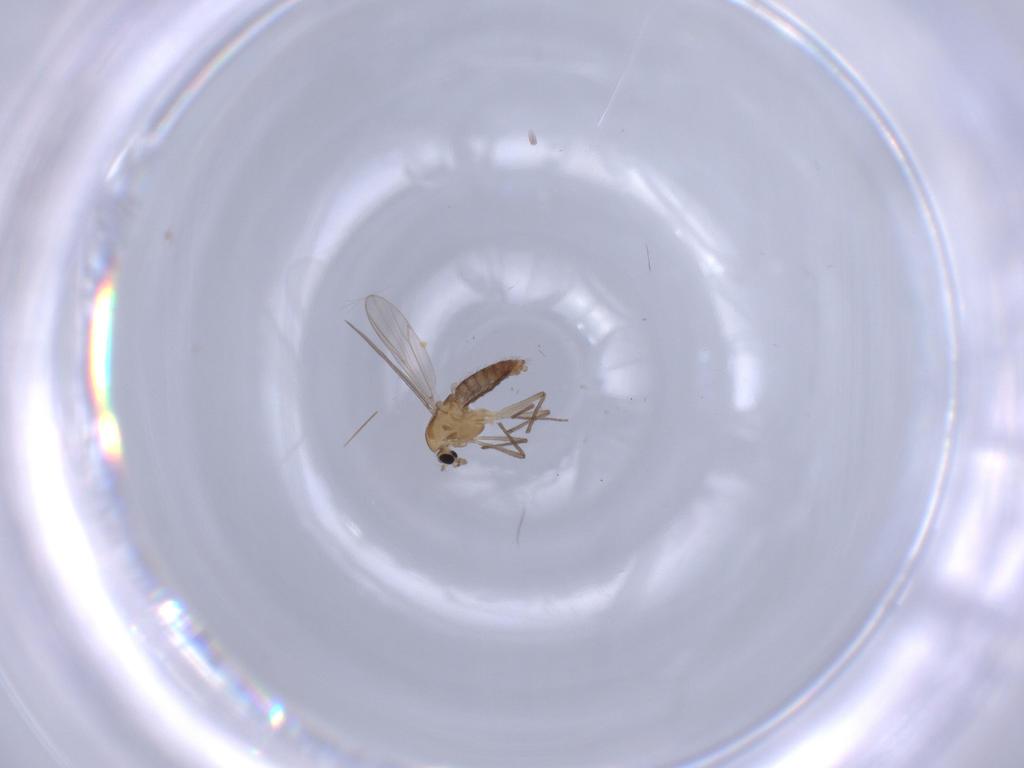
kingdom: Animalia
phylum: Arthropoda
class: Insecta
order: Diptera
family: Chironomidae
